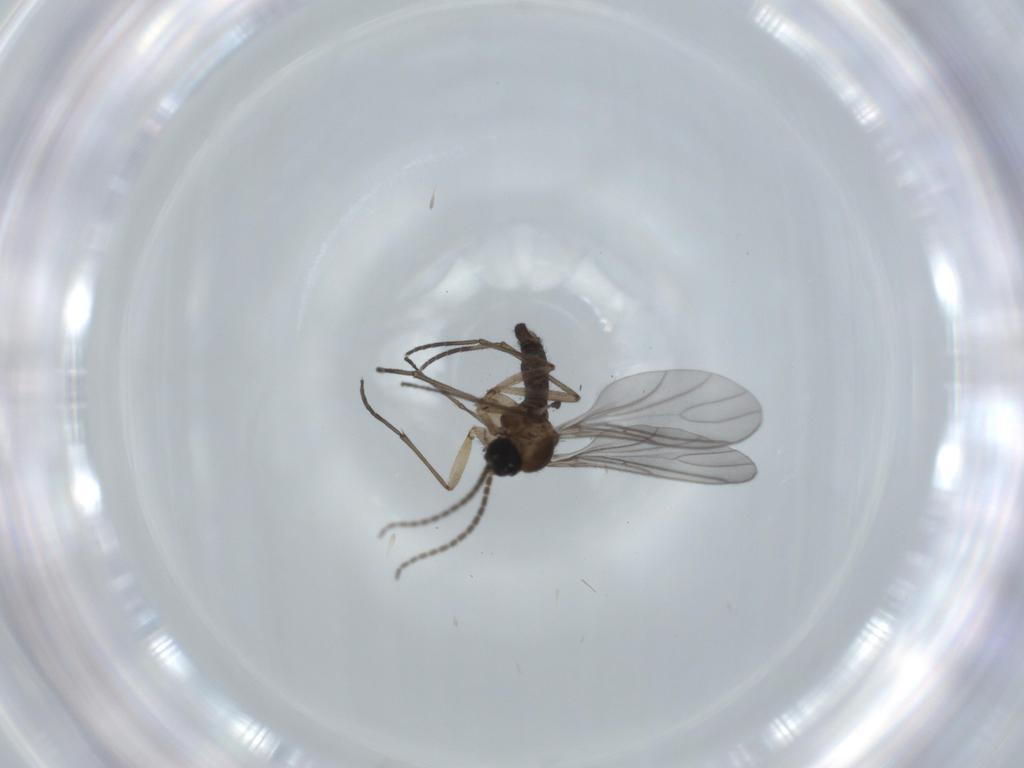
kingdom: Animalia
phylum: Arthropoda
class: Insecta
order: Diptera
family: Sciaridae
